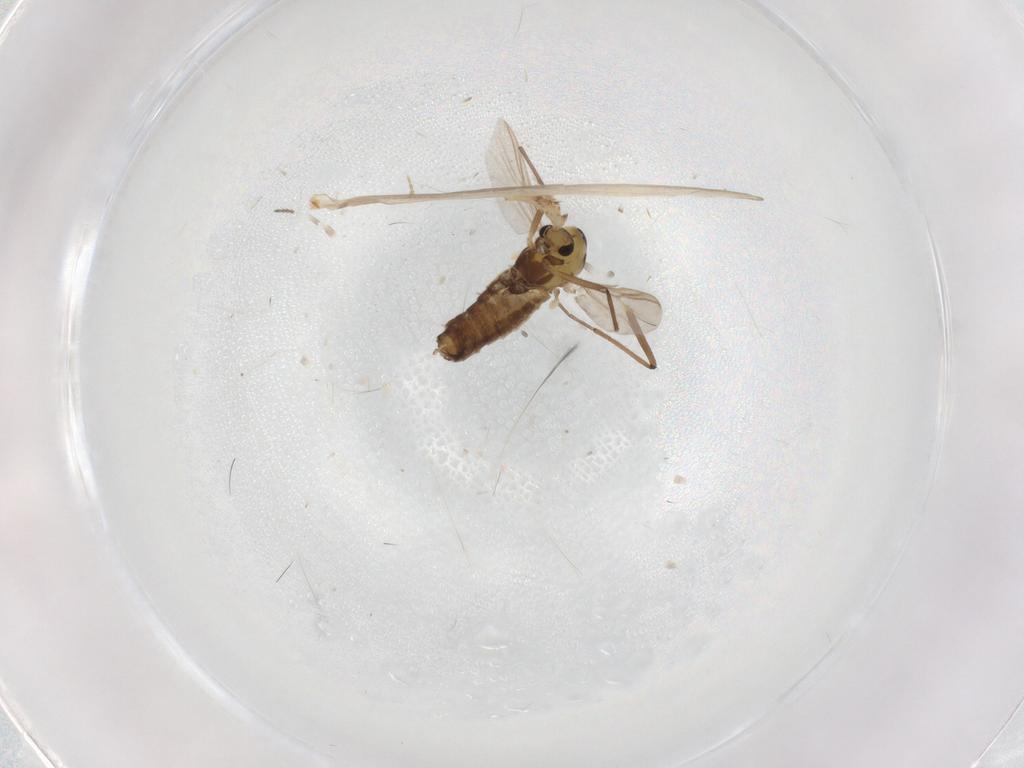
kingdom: Animalia
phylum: Arthropoda
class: Insecta
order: Diptera
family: Chironomidae
